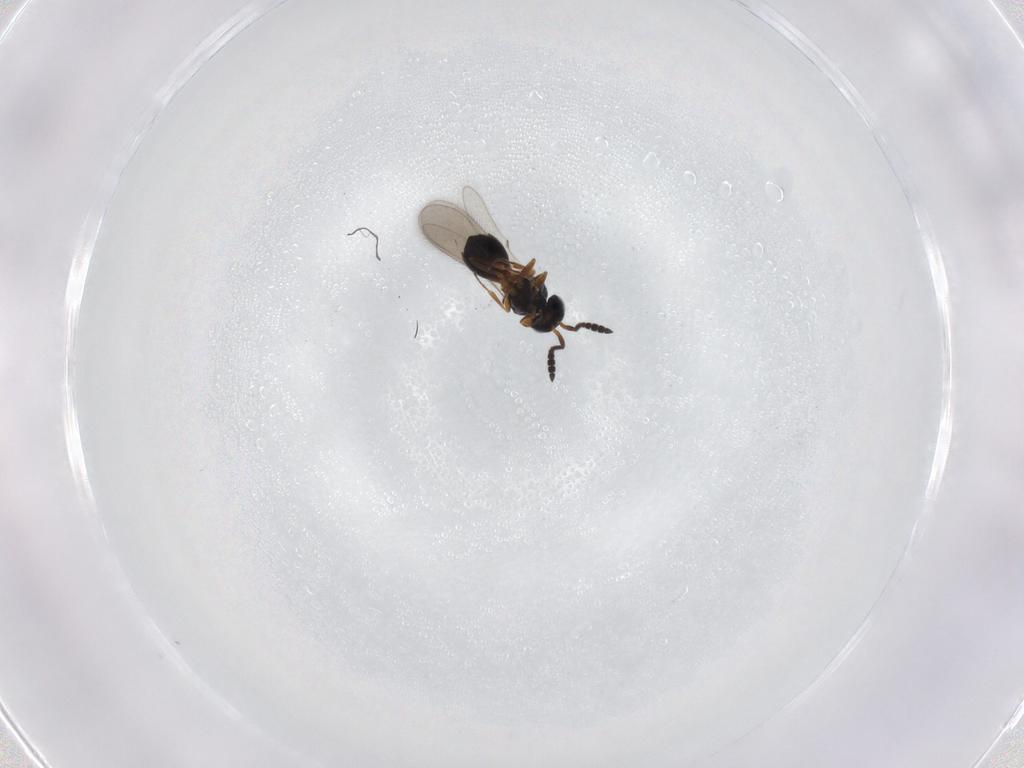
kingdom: Animalia
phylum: Arthropoda
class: Insecta
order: Hymenoptera
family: Scelionidae
